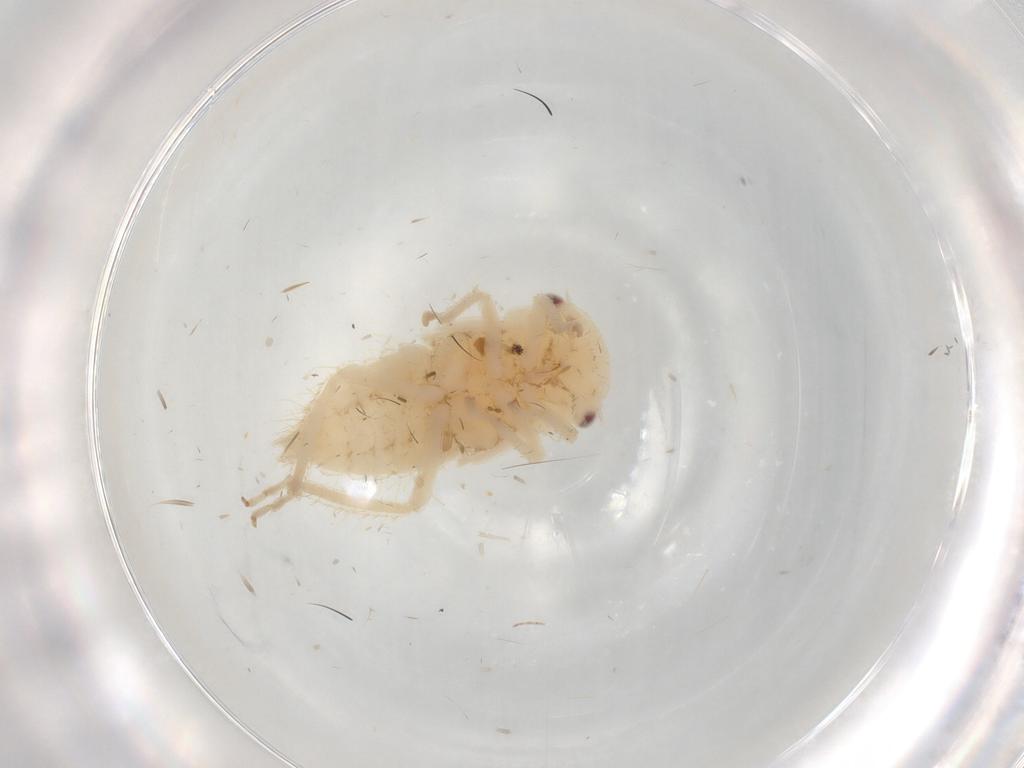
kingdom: Animalia
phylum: Arthropoda
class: Insecta
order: Hemiptera
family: Cicadellidae
